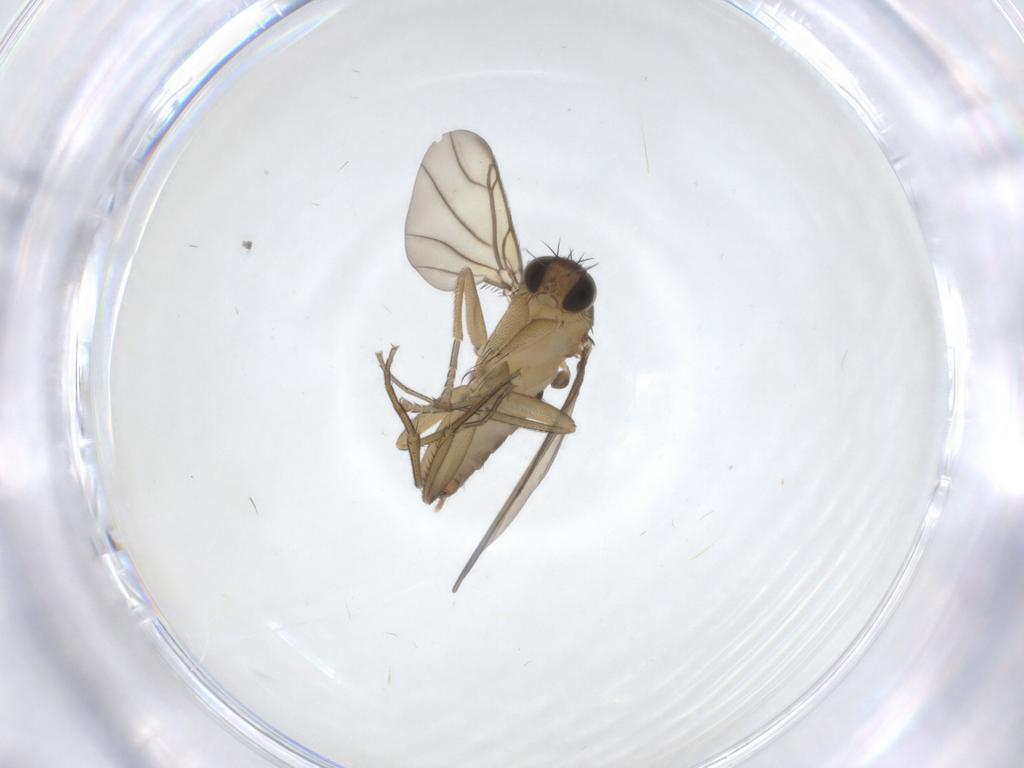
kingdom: Animalia
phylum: Arthropoda
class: Insecta
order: Diptera
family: Phoridae
